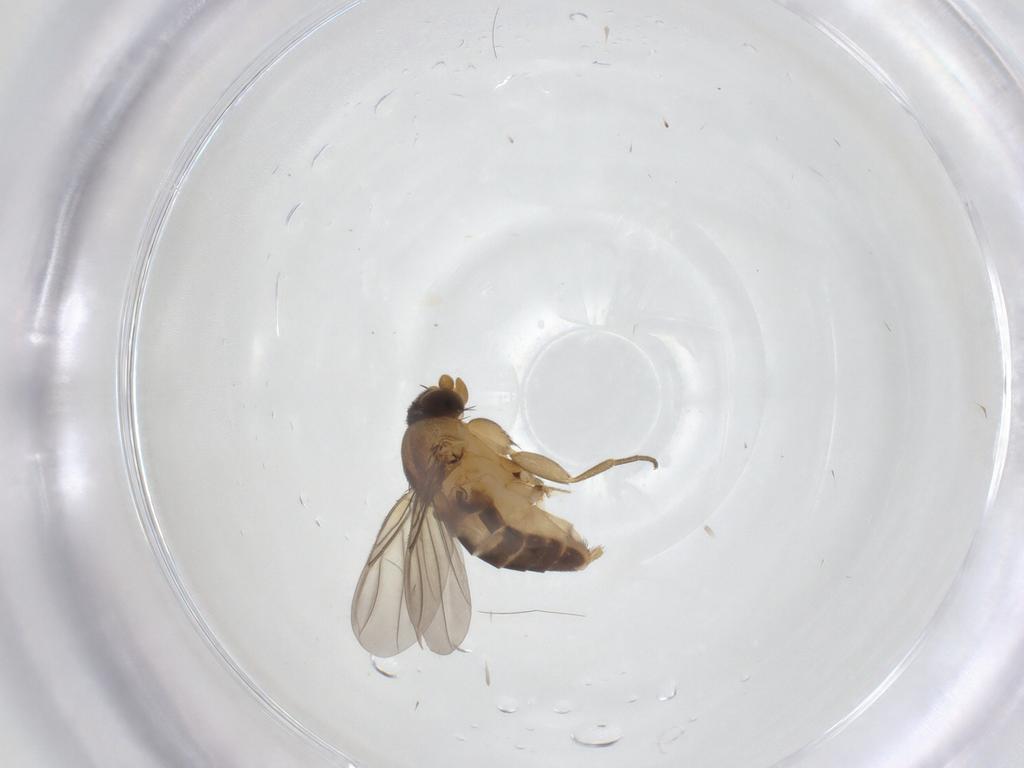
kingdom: Animalia
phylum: Arthropoda
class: Insecta
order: Diptera
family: Phoridae
